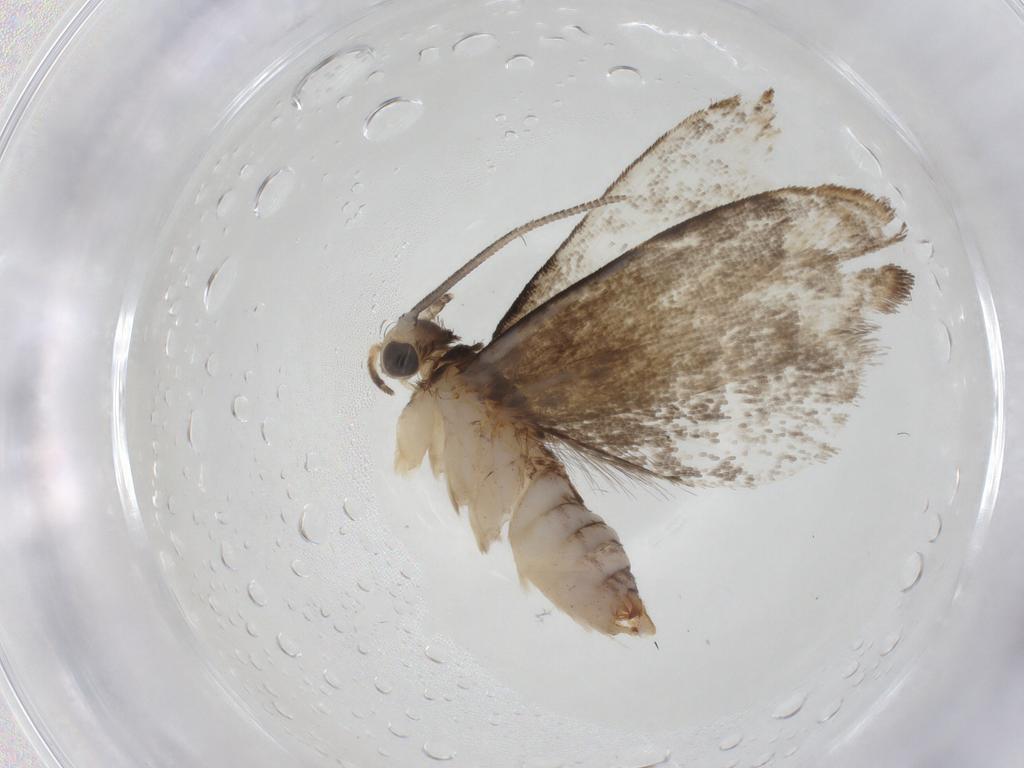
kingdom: Animalia
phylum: Arthropoda
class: Insecta
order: Lepidoptera
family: Dryadaulidae
